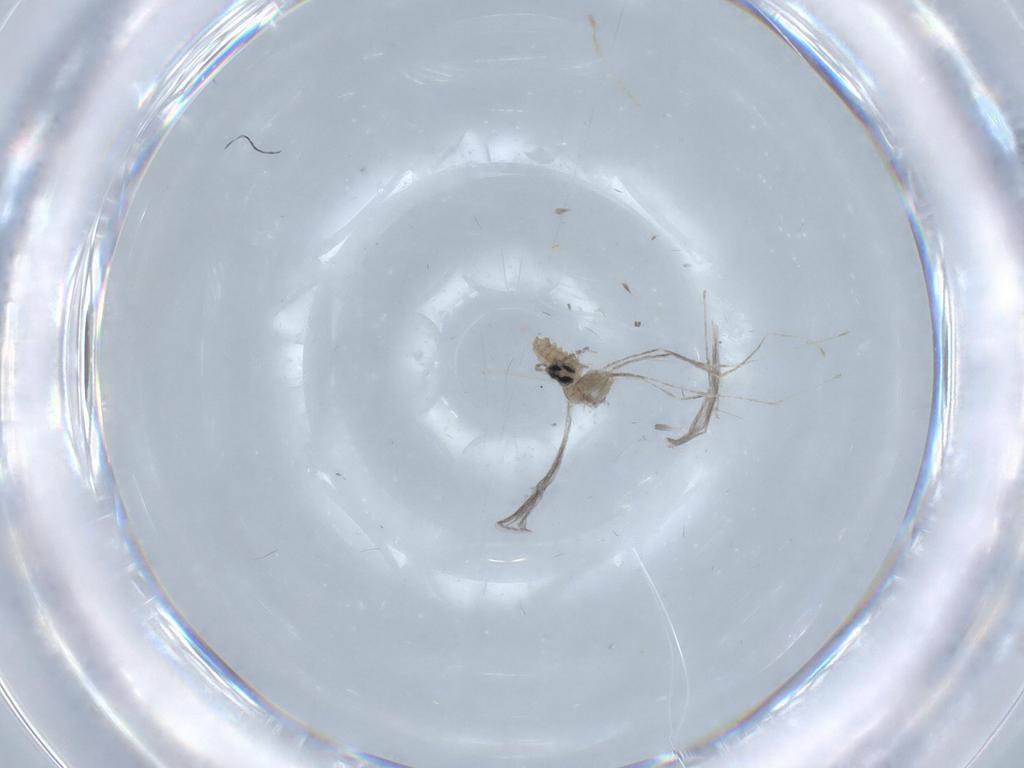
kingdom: Animalia
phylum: Arthropoda
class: Insecta
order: Diptera
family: Cecidomyiidae
